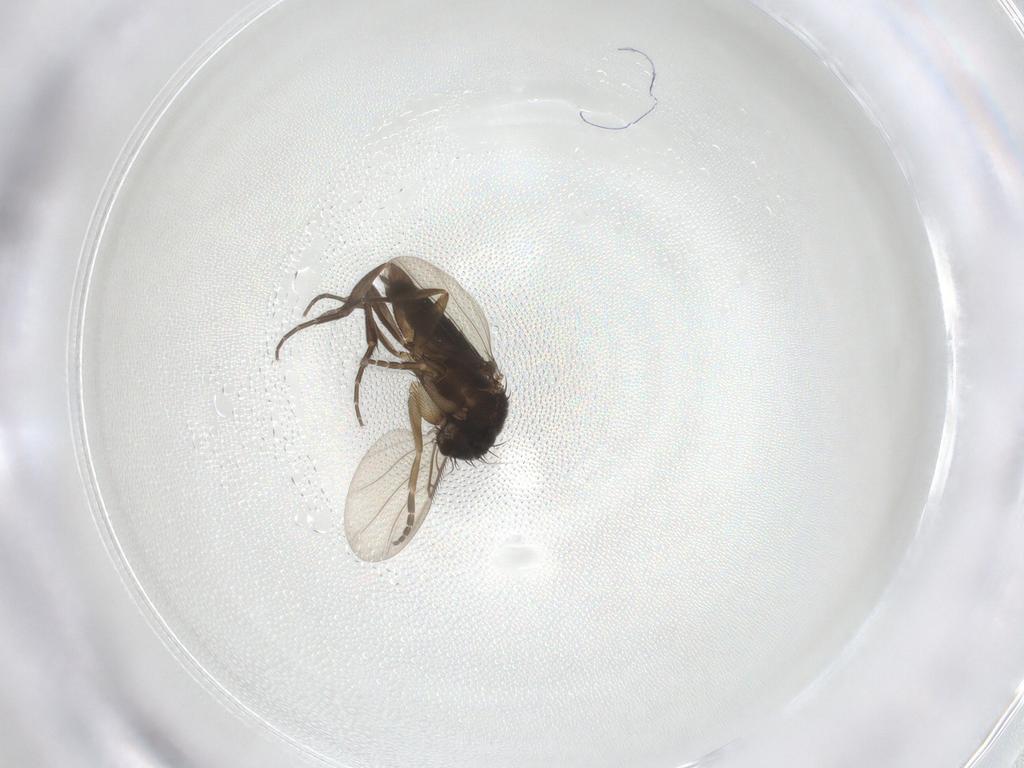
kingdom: Animalia
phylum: Arthropoda
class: Insecta
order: Diptera
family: Phoridae
